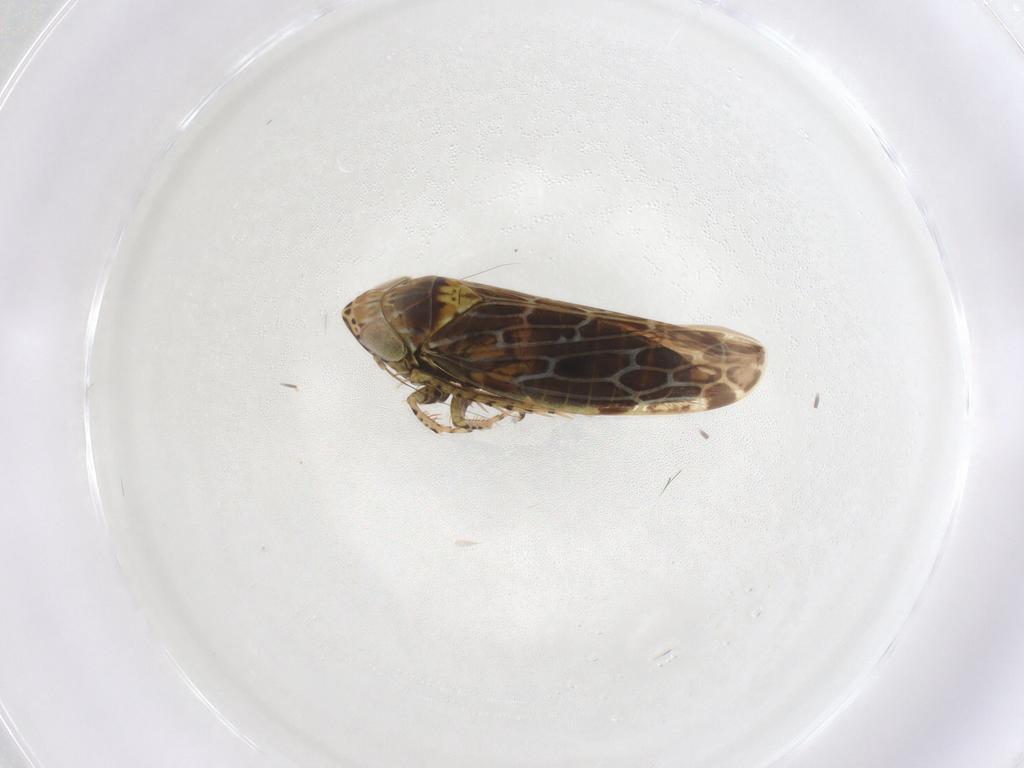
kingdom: Animalia
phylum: Arthropoda
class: Insecta
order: Hemiptera
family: Cicadellidae
